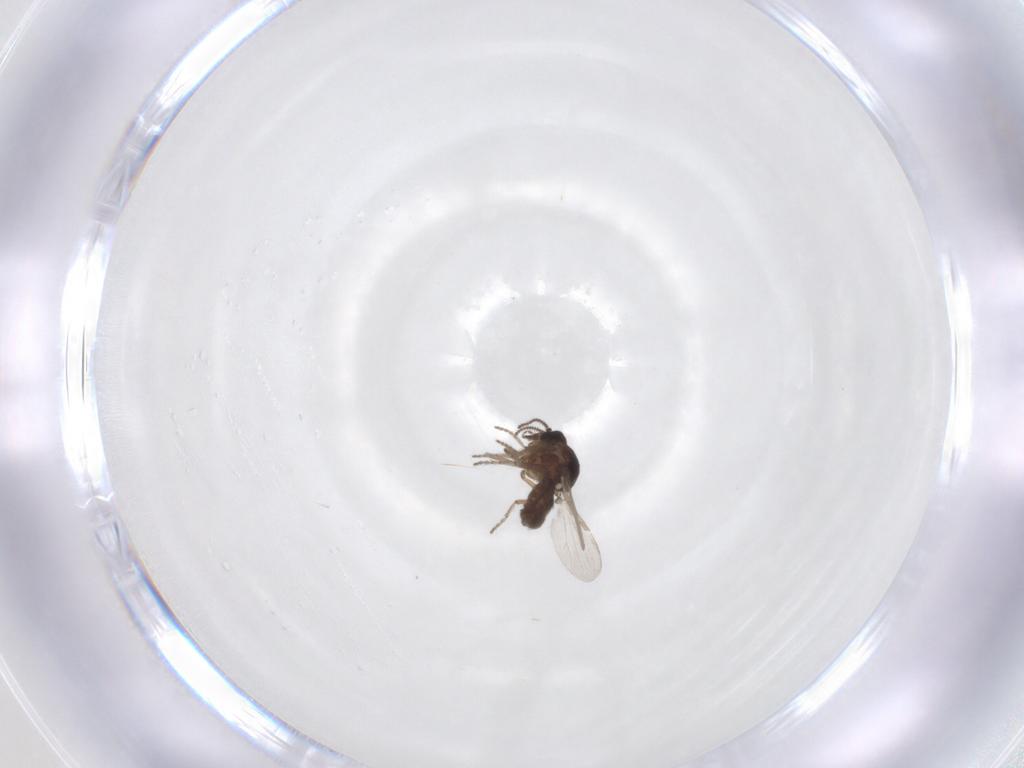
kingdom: Animalia
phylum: Arthropoda
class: Insecta
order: Diptera
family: Ceratopogonidae
